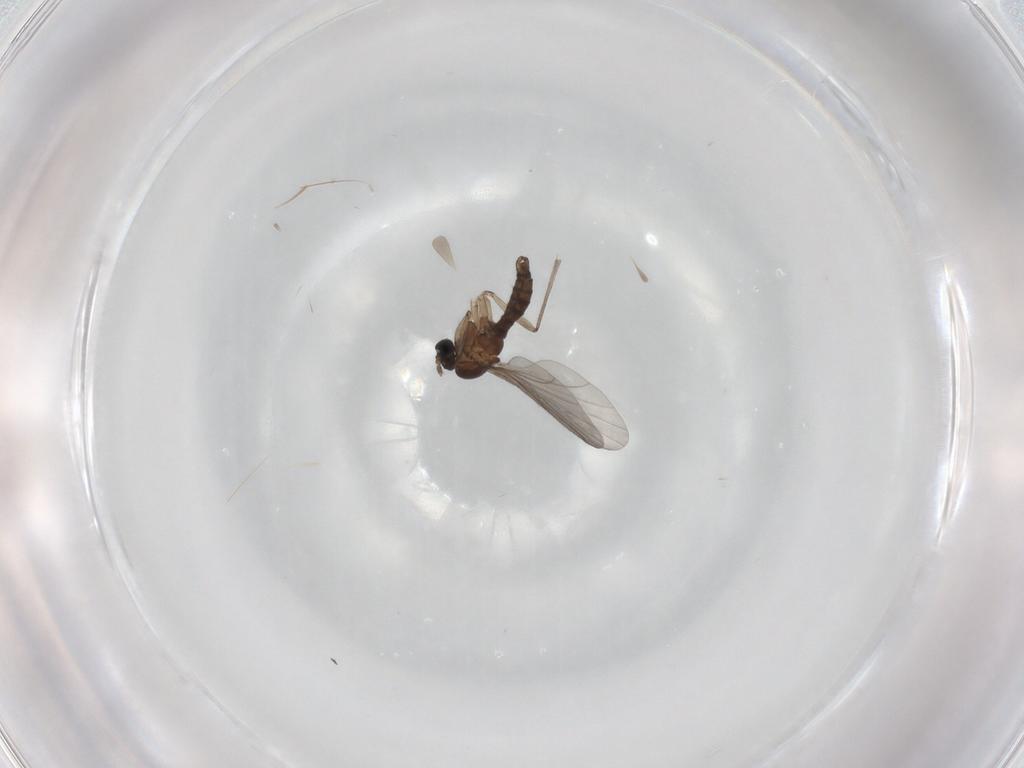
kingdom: Animalia
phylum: Arthropoda
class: Insecta
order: Diptera
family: Sciaridae
